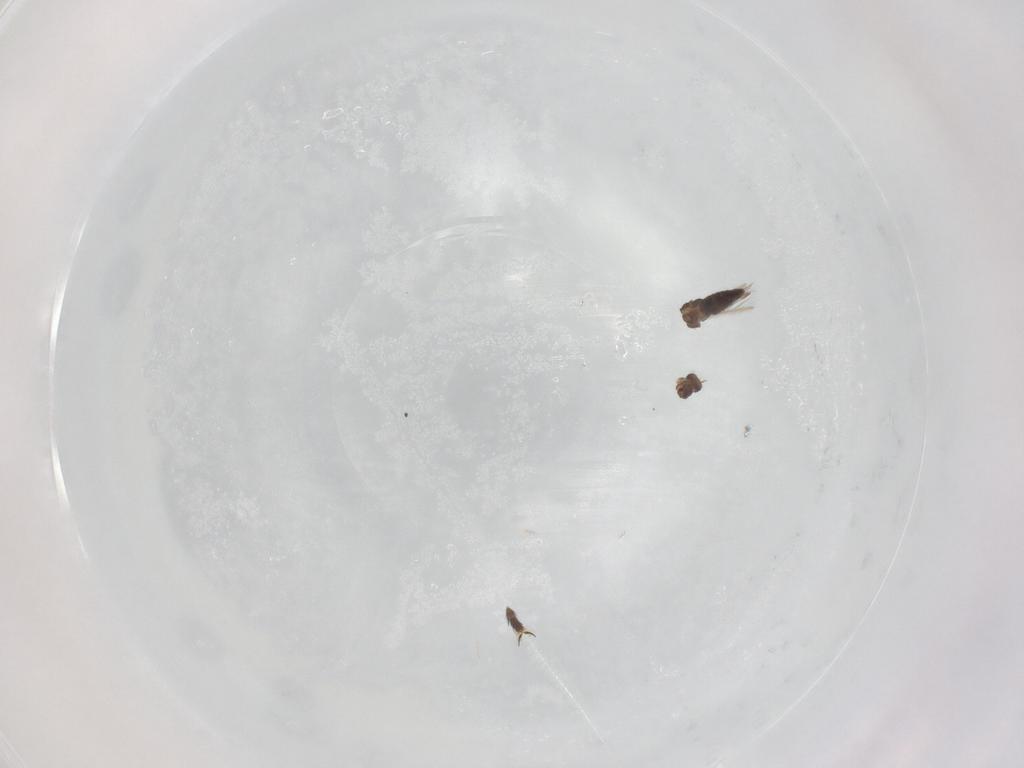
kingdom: Animalia
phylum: Arthropoda
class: Insecta
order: Thysanoptera
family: Thripidae
